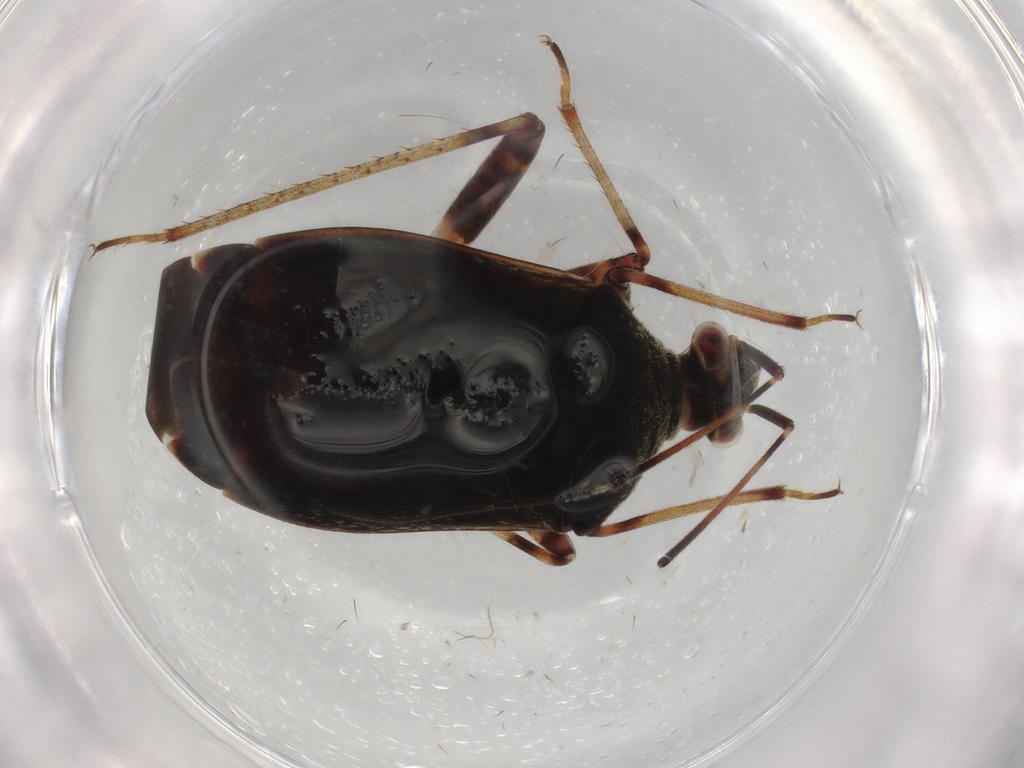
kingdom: Animalia
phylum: Arthropoda
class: Insecta
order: Hemiptera
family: Miridae
